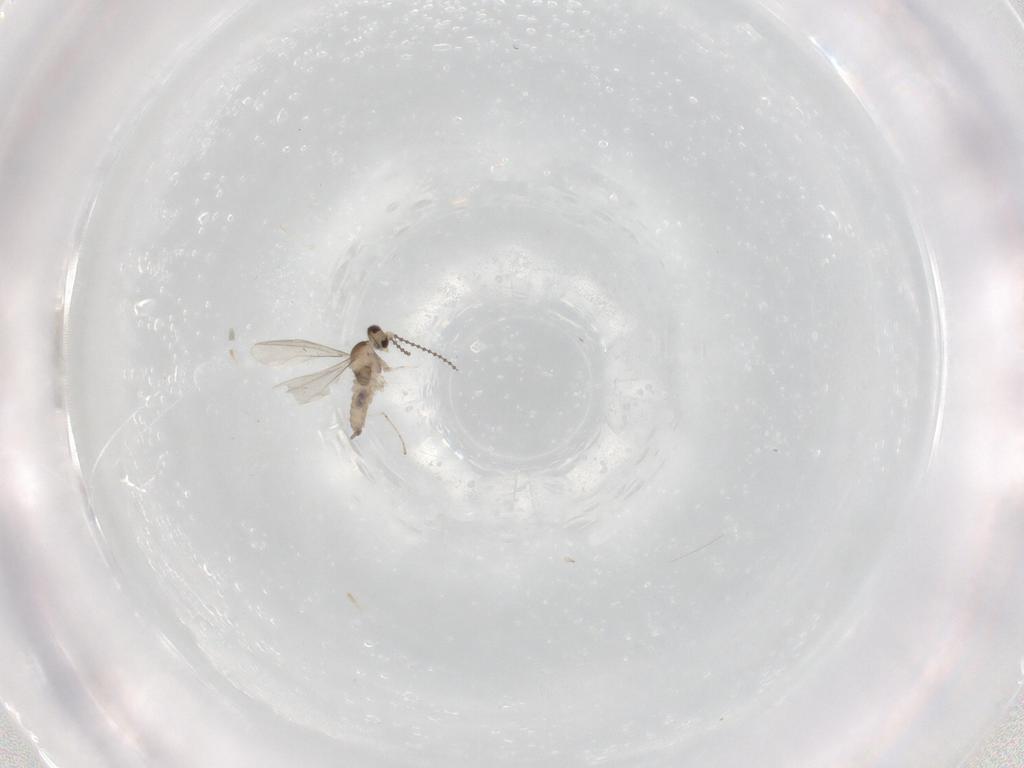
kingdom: Animalia
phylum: Arthropoda
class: Insecta
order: Diptera
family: Cecidomyiidae
